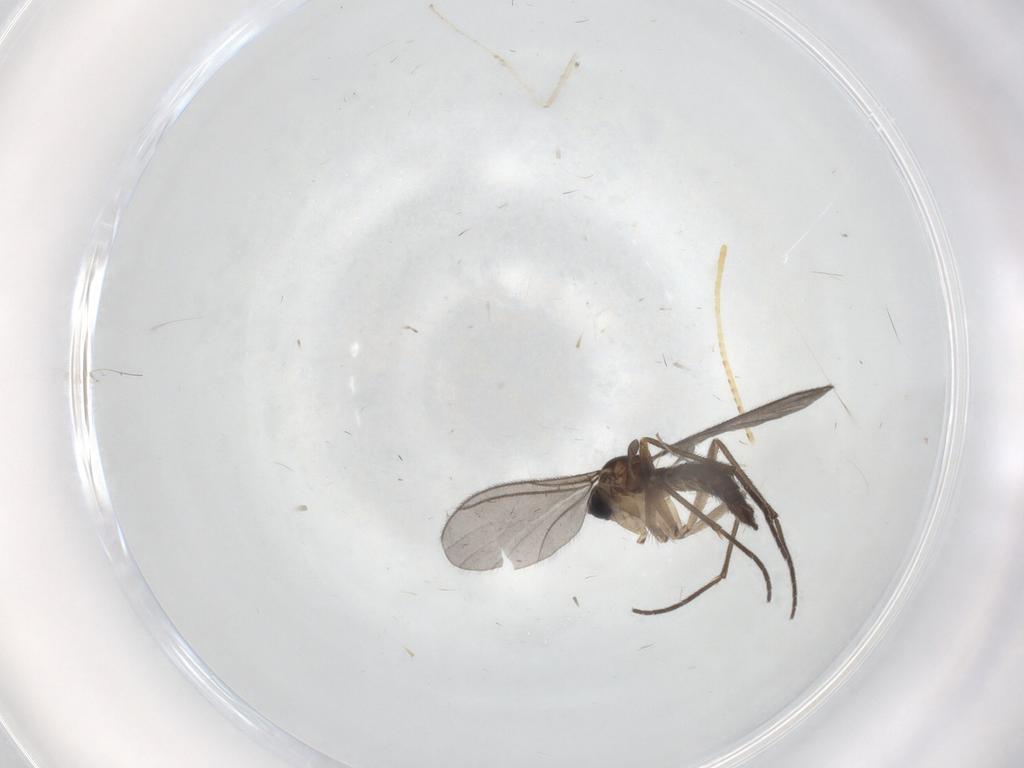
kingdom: Animalia
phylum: Arthropoda
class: Insecta
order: Diptera
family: Sciaridae
